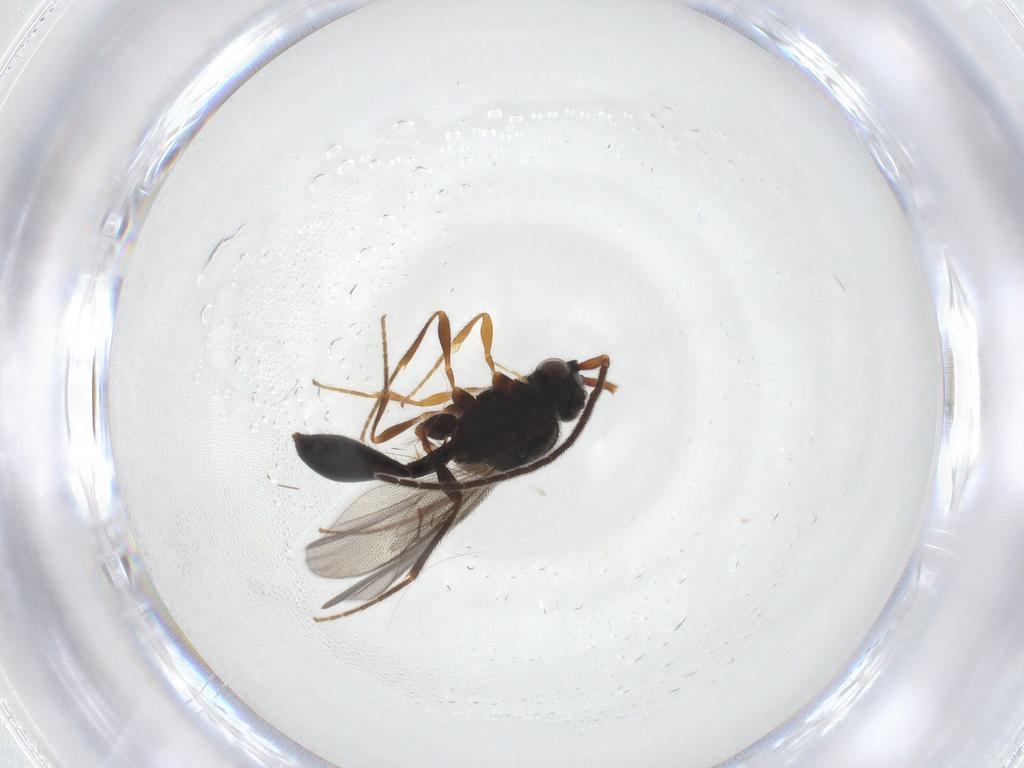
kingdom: Animalia
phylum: Arthropoda
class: Insecta
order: Hymenoptera
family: Diapriidae
